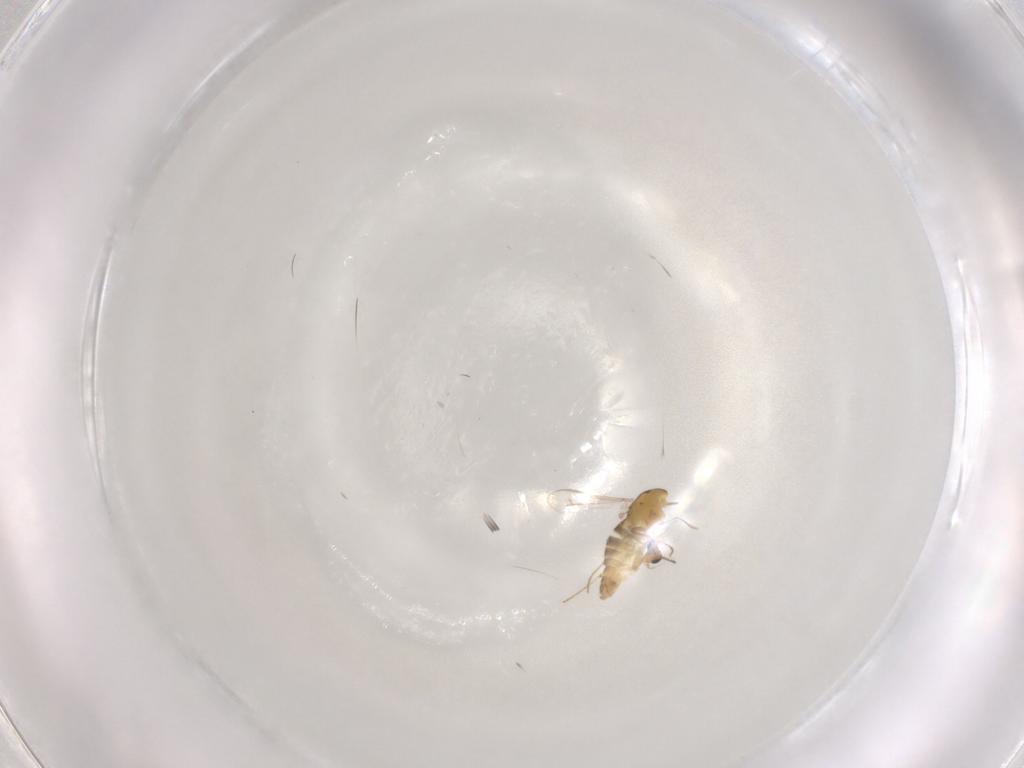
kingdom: Animalia
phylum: Arthropoda
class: Insecta
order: Diptera
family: Chironomidae
